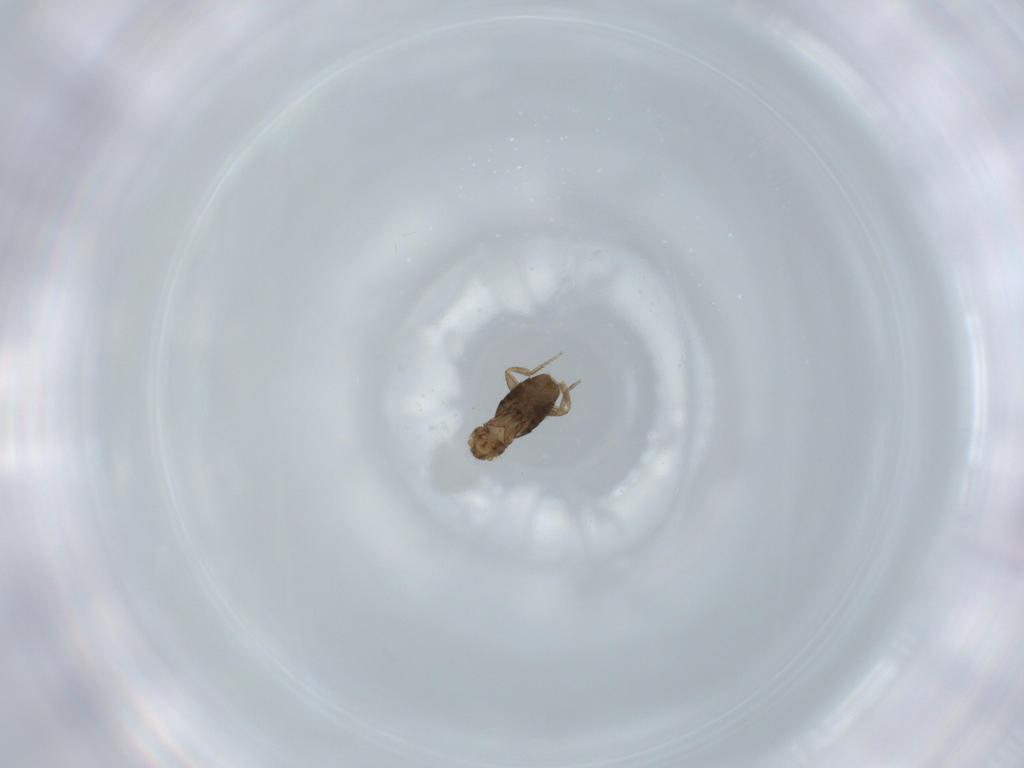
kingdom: Animalia
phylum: Arthropoda
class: Insecta
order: Diptera
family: Phoridae
